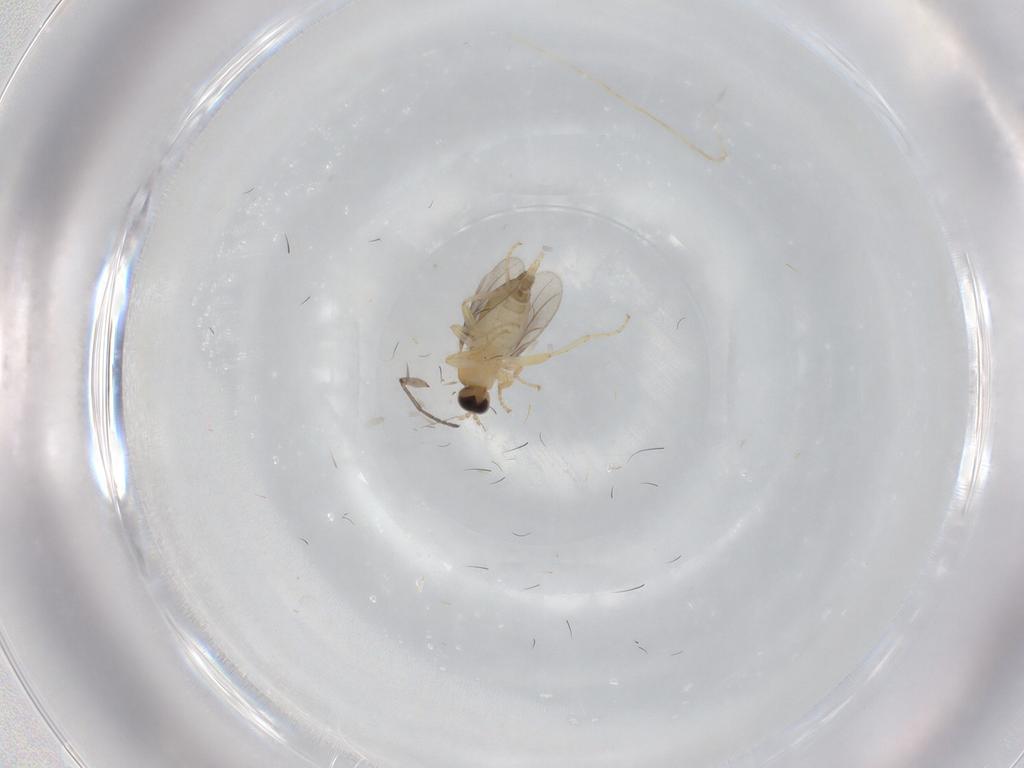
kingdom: Animalia
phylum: Arthropoda
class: Insecta
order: Diptera
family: Hybotidae
